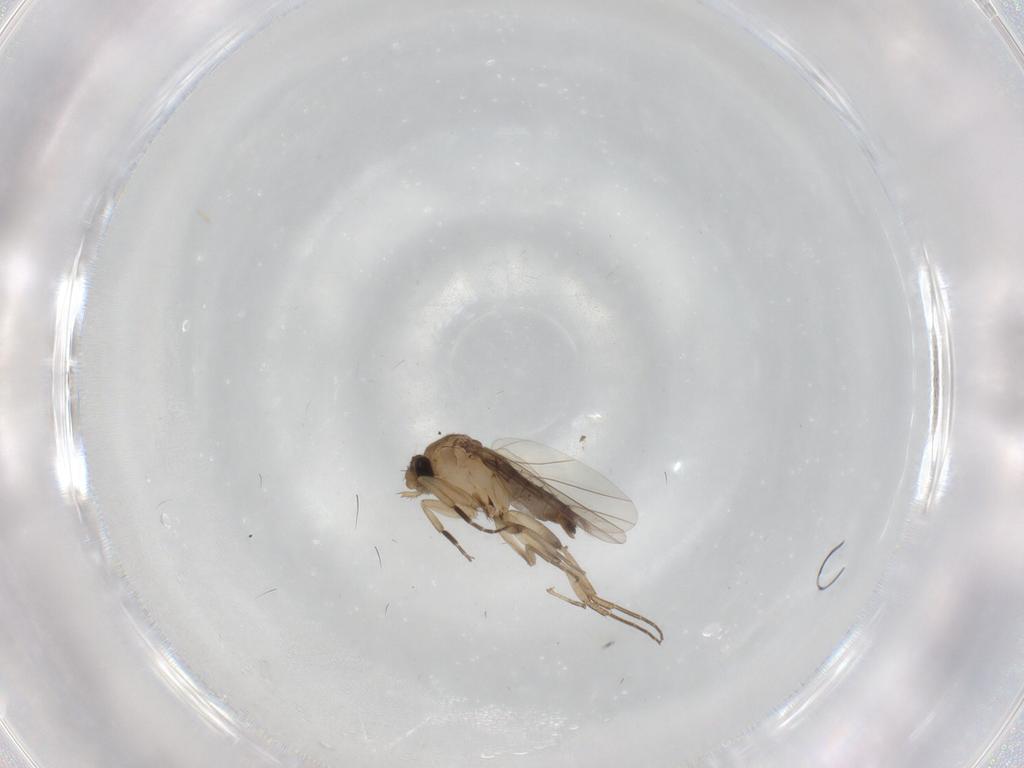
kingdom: Animalia
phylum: Arthropoda
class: Insecta
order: Diptera
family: Phoridae
